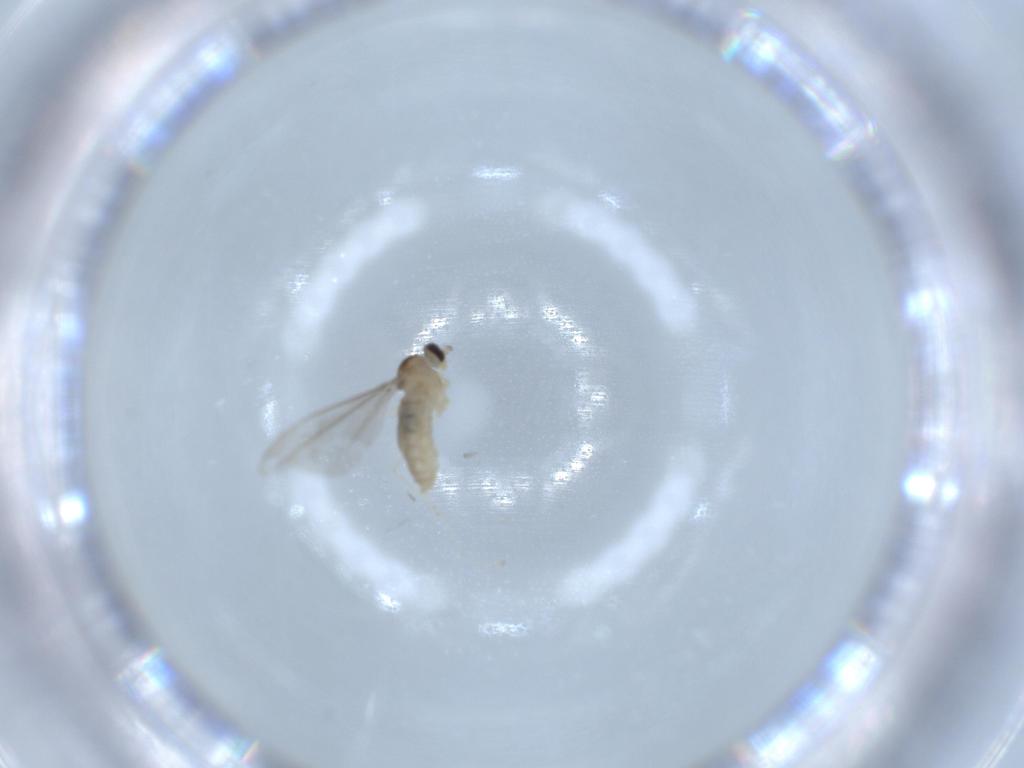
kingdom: Animalia
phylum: Arthropoda
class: Insecta
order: Diptera
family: Cecidomyiidae
